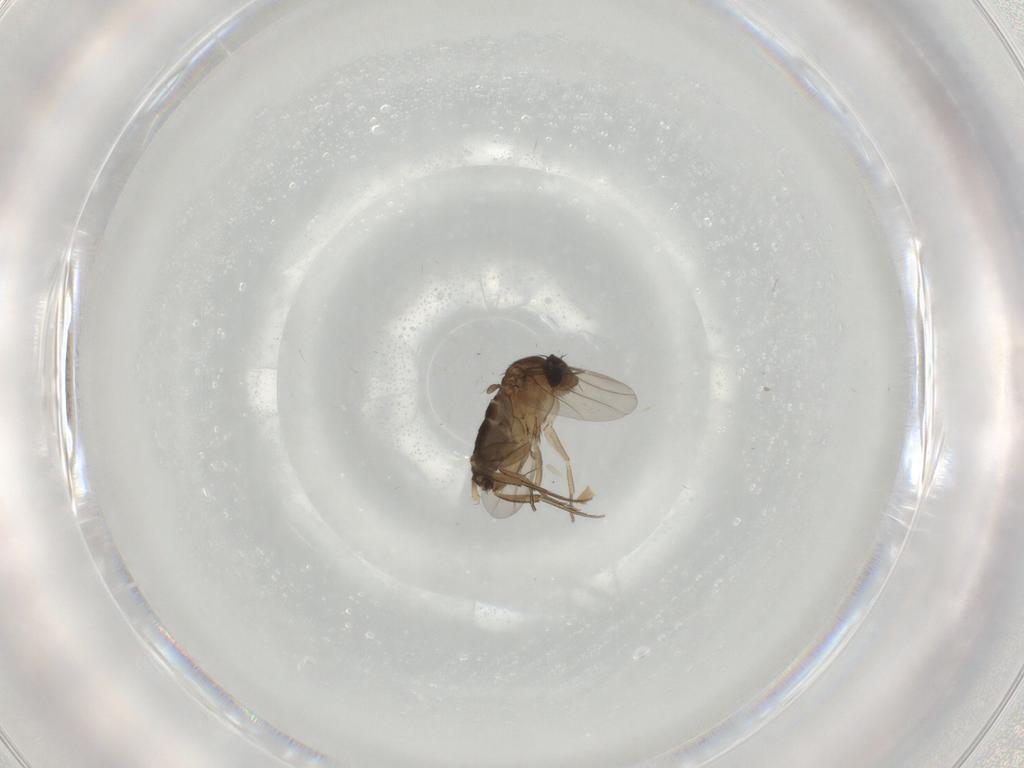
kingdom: Animalia
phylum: Arthropoda
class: Insecta
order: Diptera
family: Phoridae
